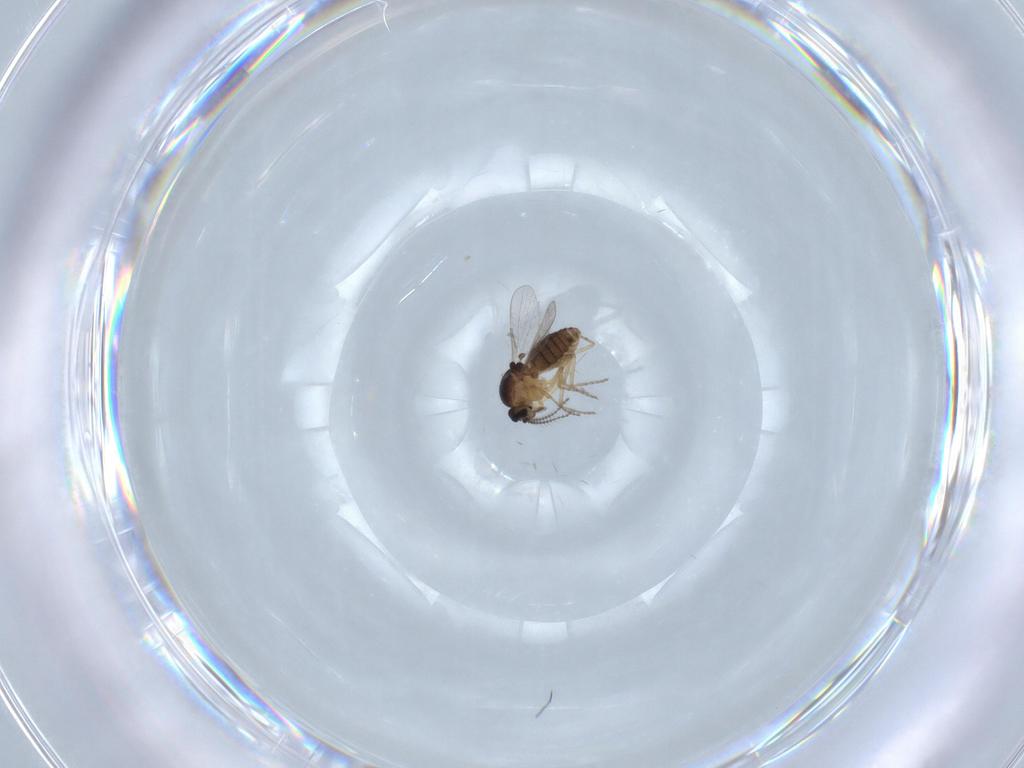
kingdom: Animalia
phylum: Arthropoda
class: Insecta
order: Diptera
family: Ceratopogonidae
